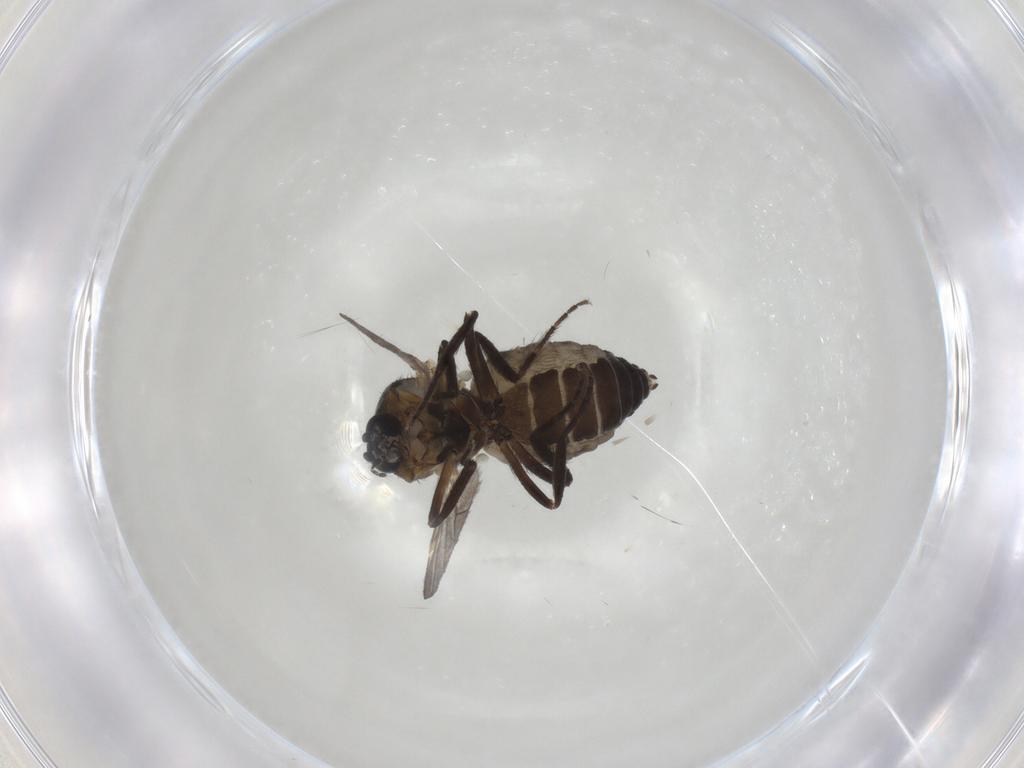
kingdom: Animalia
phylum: Arthropoda
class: Insecta
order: Diptera
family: Ceratopogonidae
